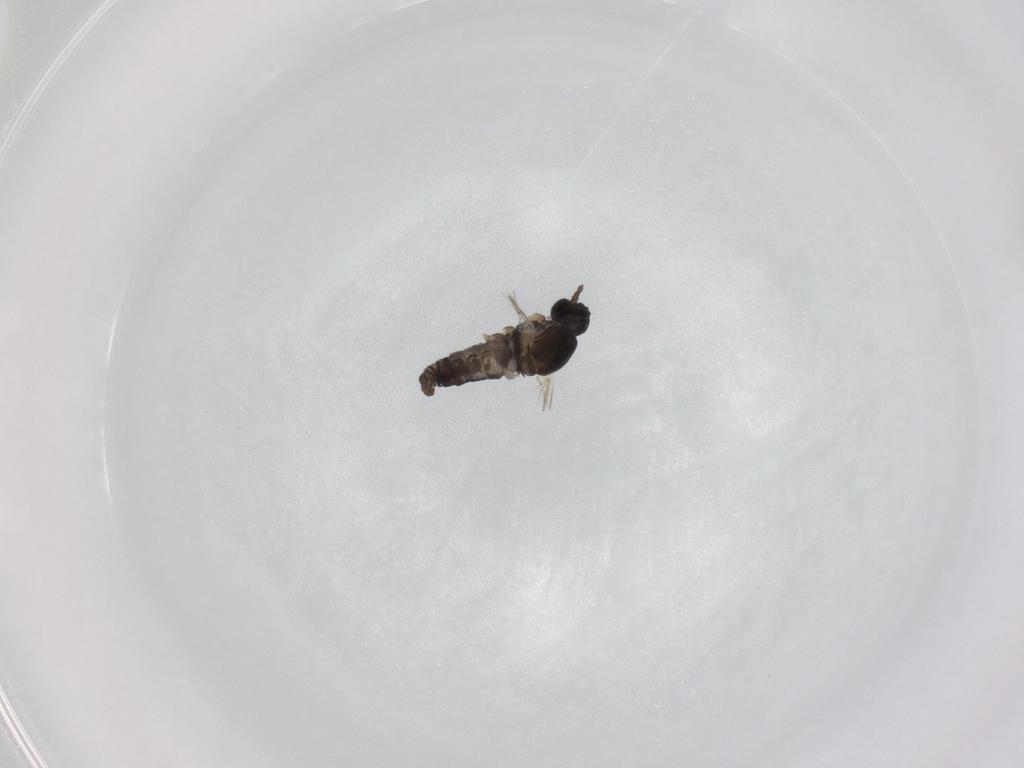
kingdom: Animalia
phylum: Arthropoda
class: Insecta
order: Diptera
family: Cecidomyiidae
